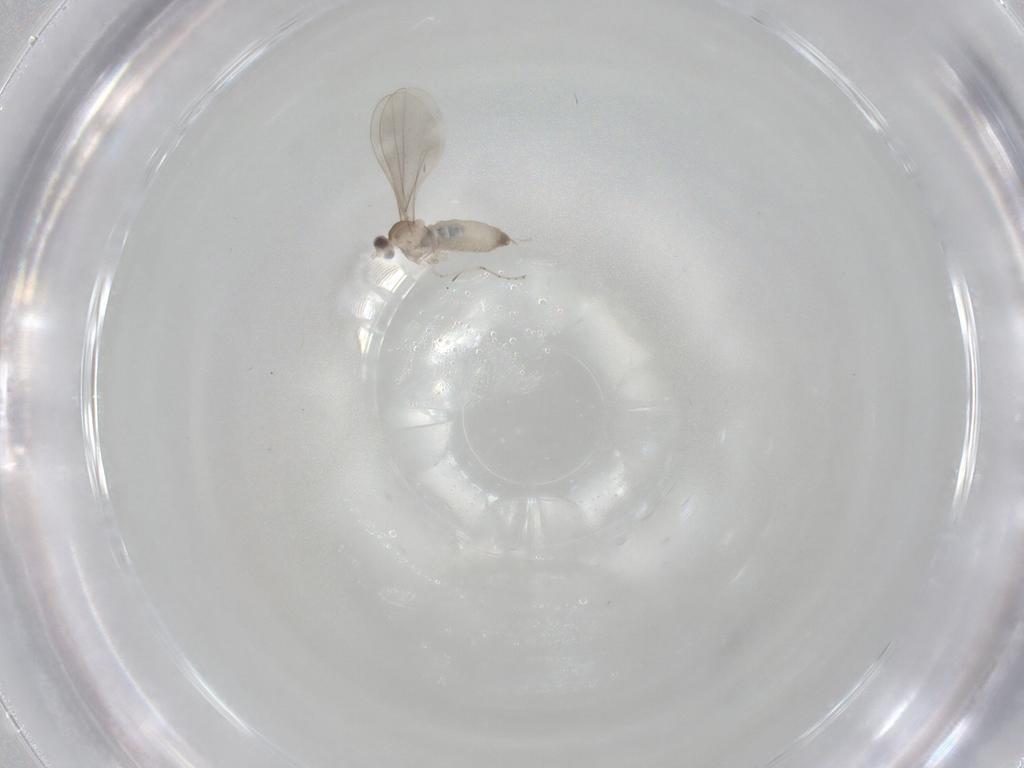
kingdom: Animalia
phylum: Arthropoda
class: Insecta
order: Diptera
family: Cecidomyiidae
